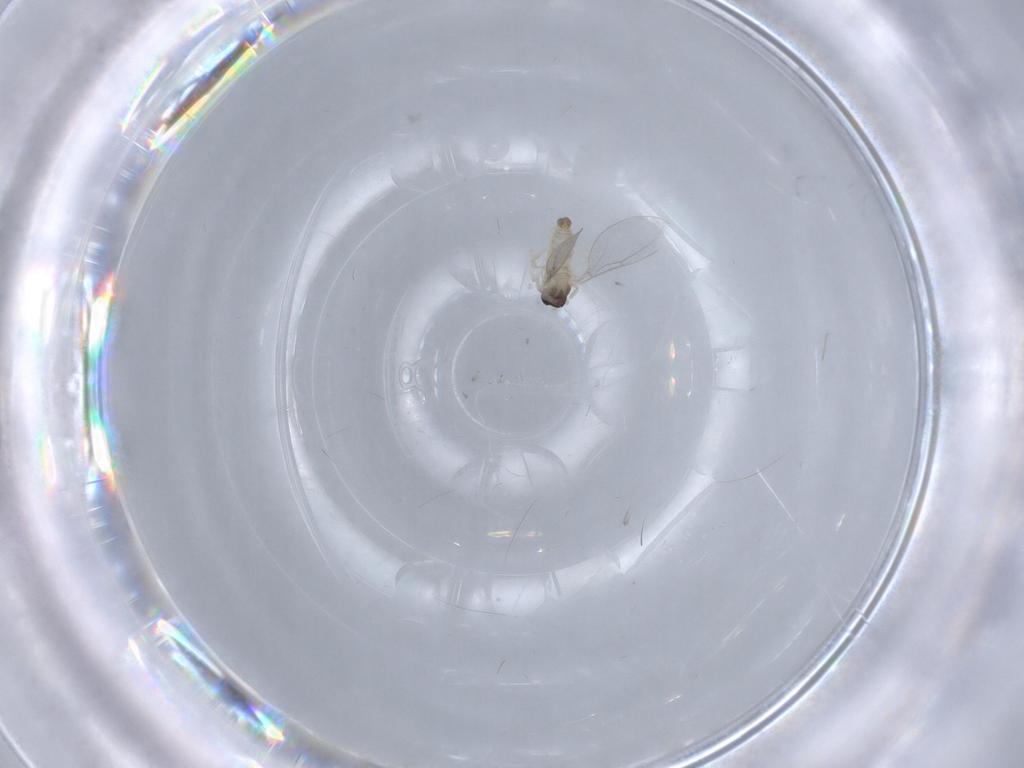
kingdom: Animalia
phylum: Arthropoda
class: Insecta
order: Diptera
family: Cecidomyiidae
